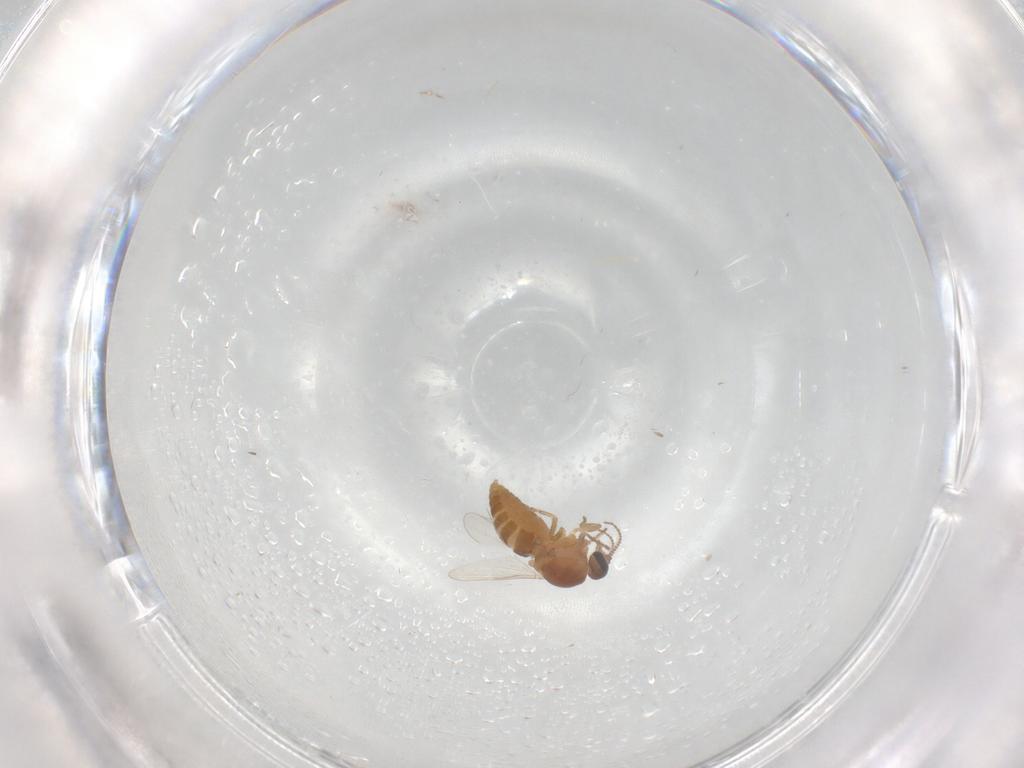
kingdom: Animalia
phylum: Arthropoda
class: Insecta
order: Diptera
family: Ceratopogonidae
